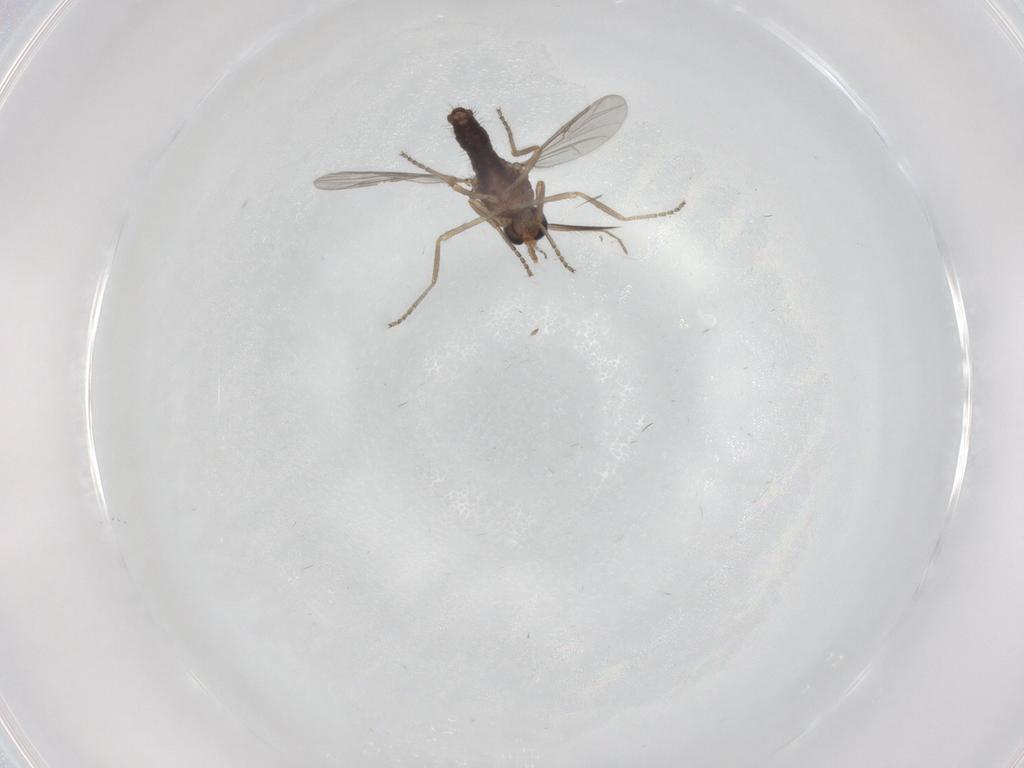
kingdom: Animalia
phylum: Arthropoda
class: Insecta
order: Diptera
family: Ceratopogonidae
